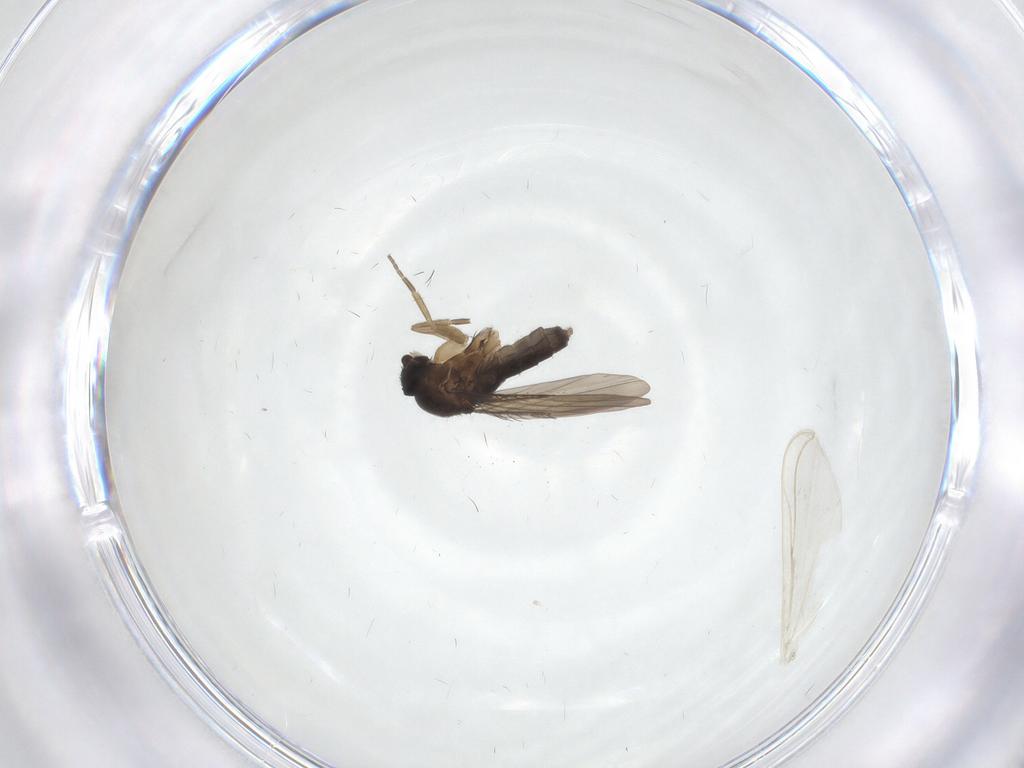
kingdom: Animalia
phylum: Arthropoda
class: Insecta
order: Diptera
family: Phoridae
